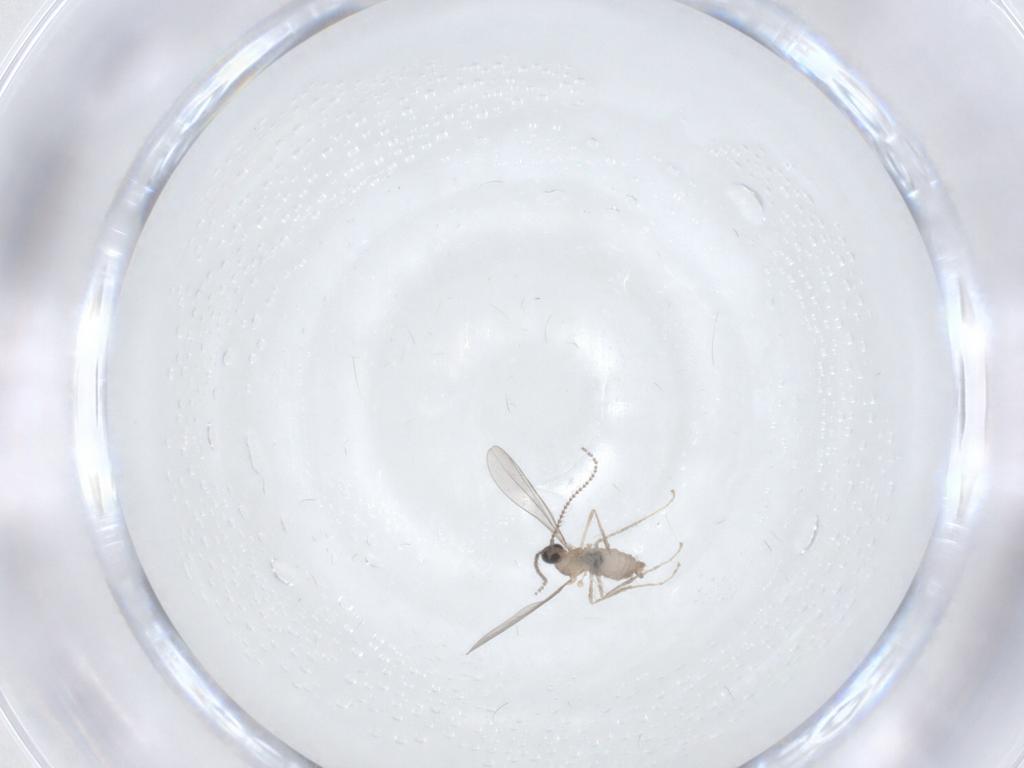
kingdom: Animalia
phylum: Arthropoda
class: Insecta
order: Diptera
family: Cecidomyiidae
